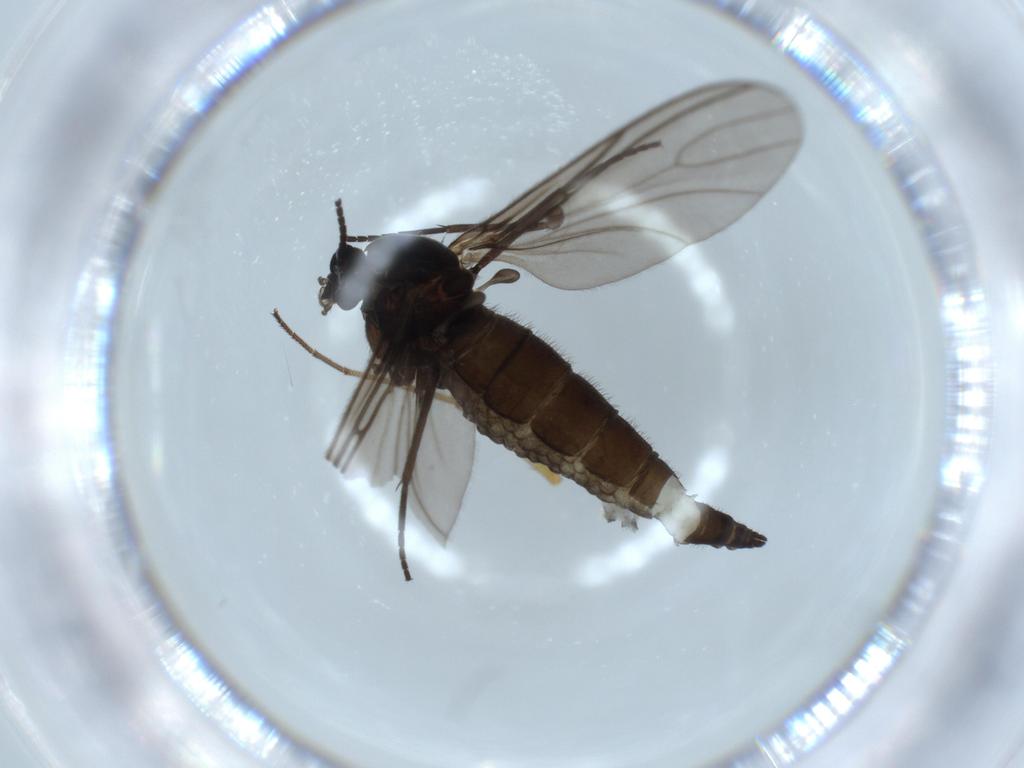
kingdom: Animalia
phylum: Arthropoda
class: Insecta
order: Diptera
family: Sciaridae
